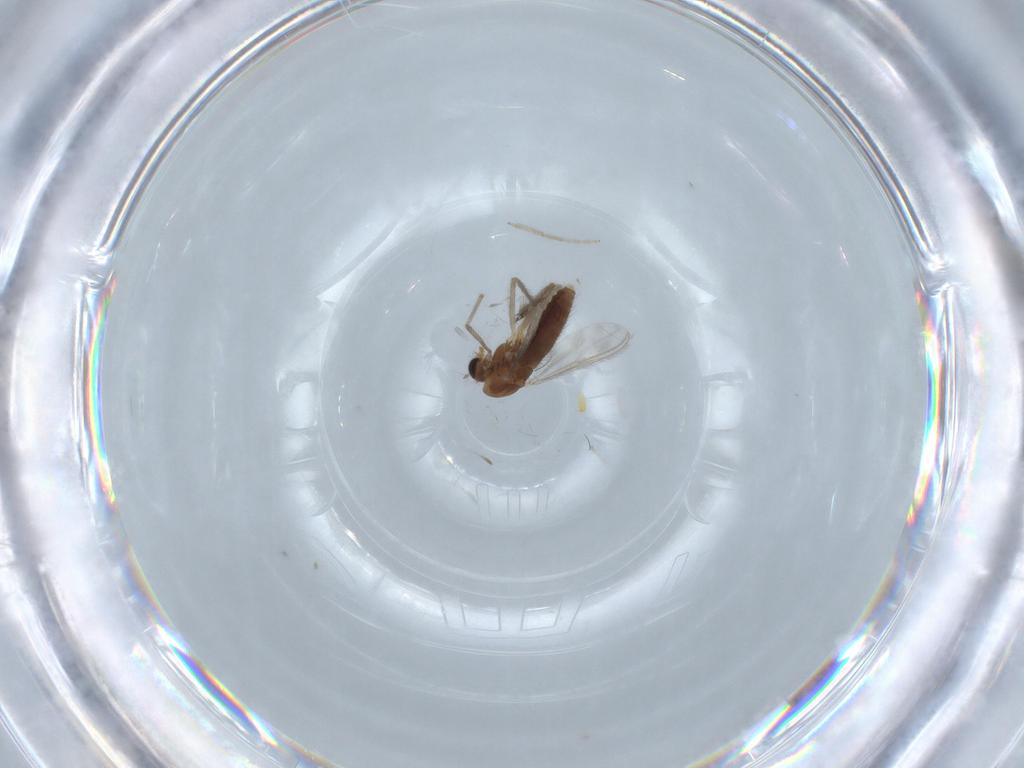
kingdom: Animalia
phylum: Arthropoda
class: Insecta
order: Diptera
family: Chironomidae
